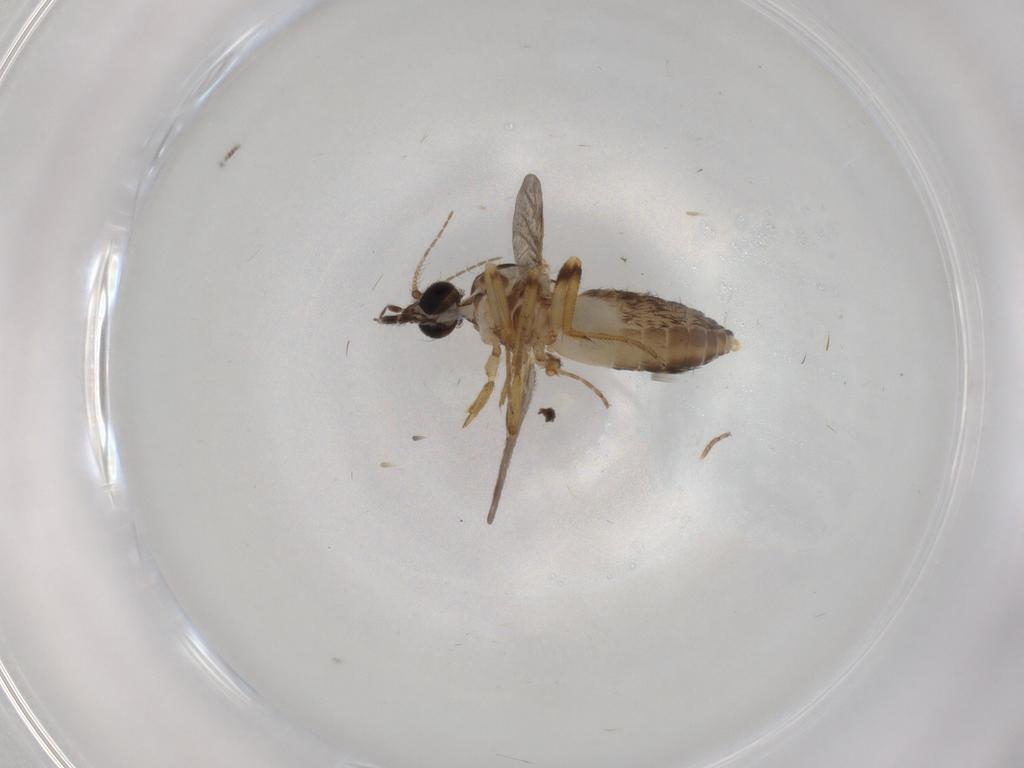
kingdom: Animalia
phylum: Arthropoda
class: Insecta
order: Diptera
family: Ceratopogonidae
